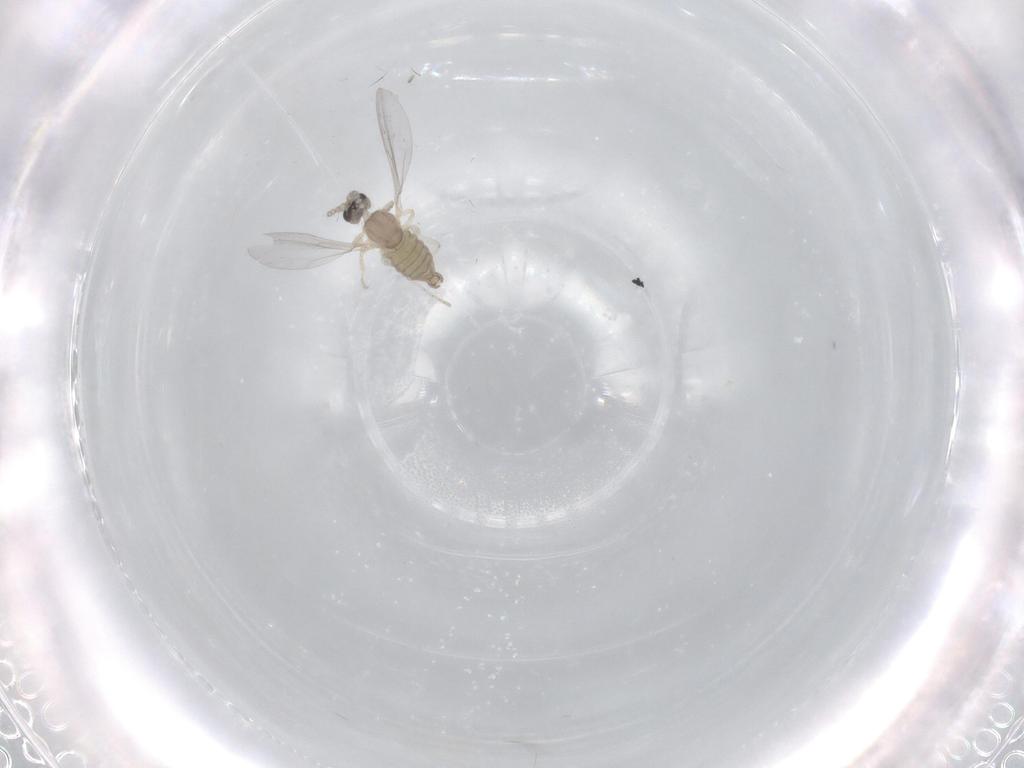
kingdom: Animalia
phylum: Arthropoda
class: Insecta
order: Diptera
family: Cecidomyiidae
